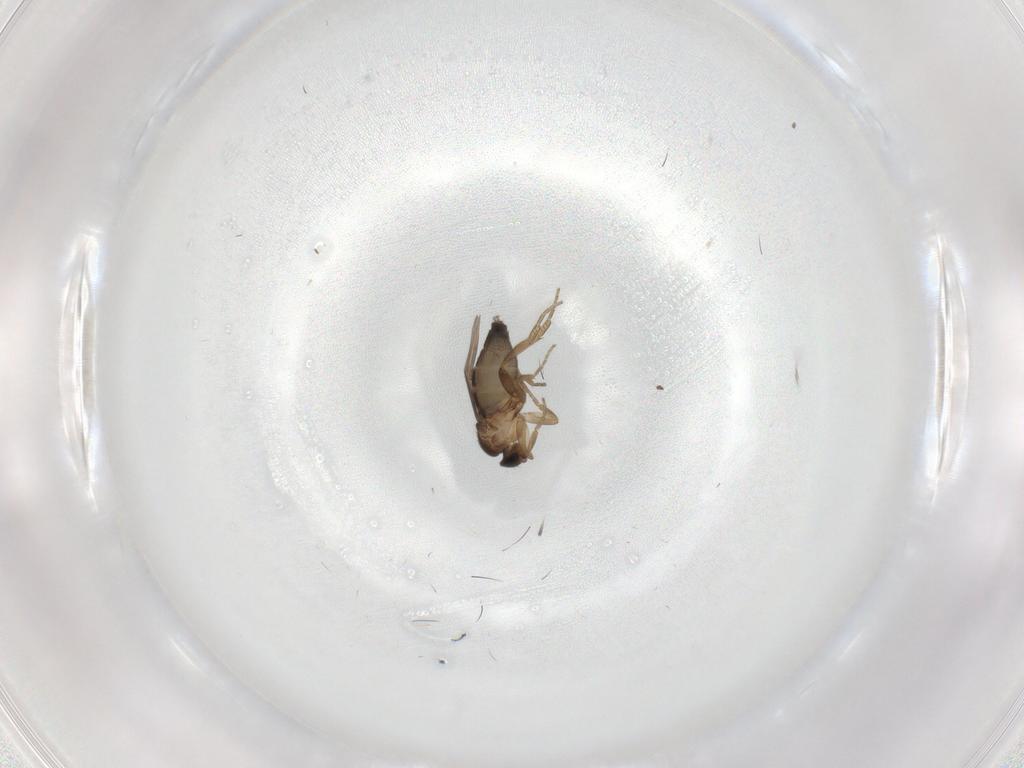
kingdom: Animalia
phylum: Arthropoda
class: Insecta
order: Diptera
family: Phoridae
